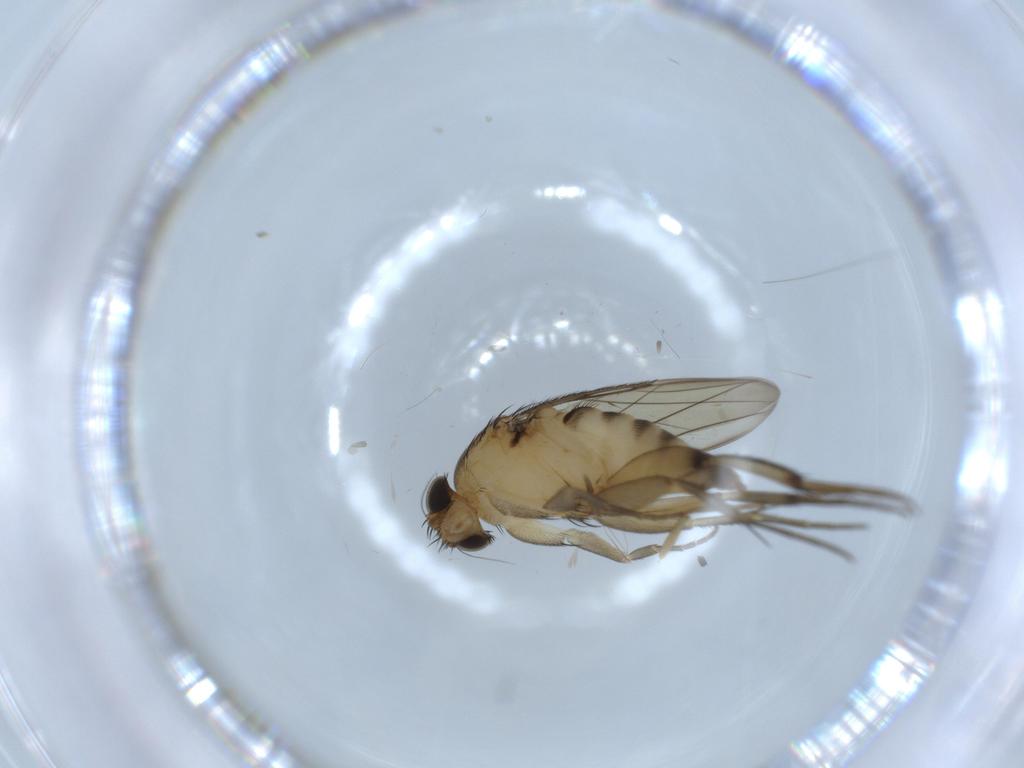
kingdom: Animalia
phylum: Arthropoda
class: Insecta
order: Diptera
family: Phoridae
